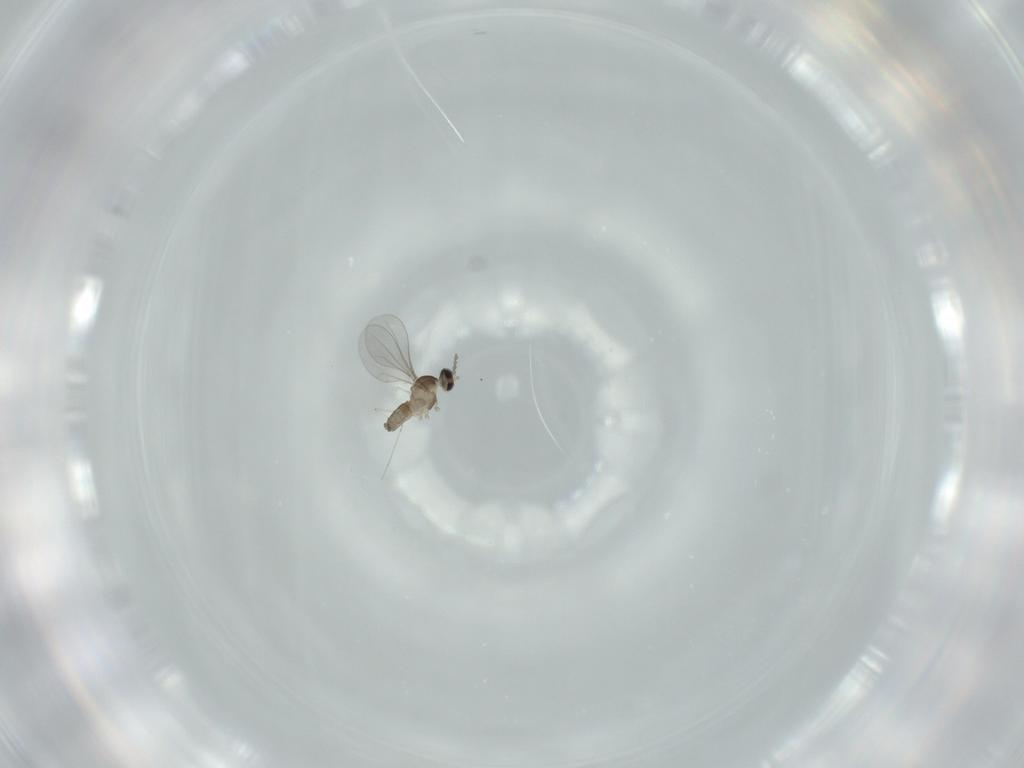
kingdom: Animalia
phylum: Arthropoda
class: Insecta
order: Diptera
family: Cecidomyiidae
